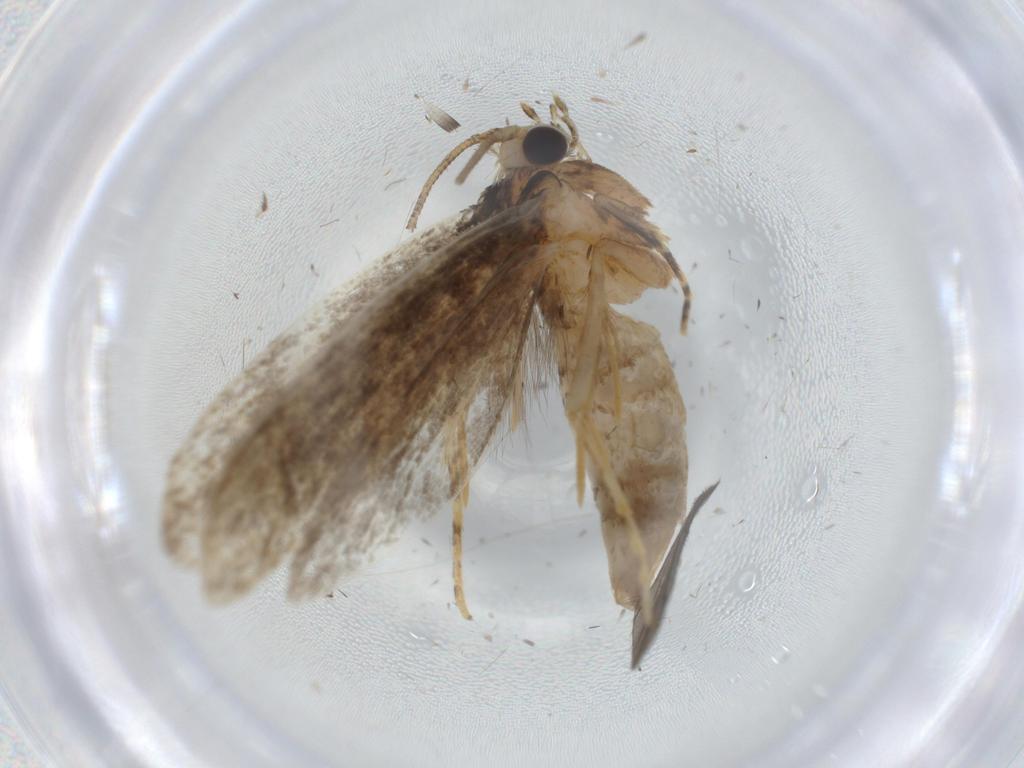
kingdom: Animalia
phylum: Arthropoda
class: Insecta
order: Lepidoptera
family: Nepticulidae
